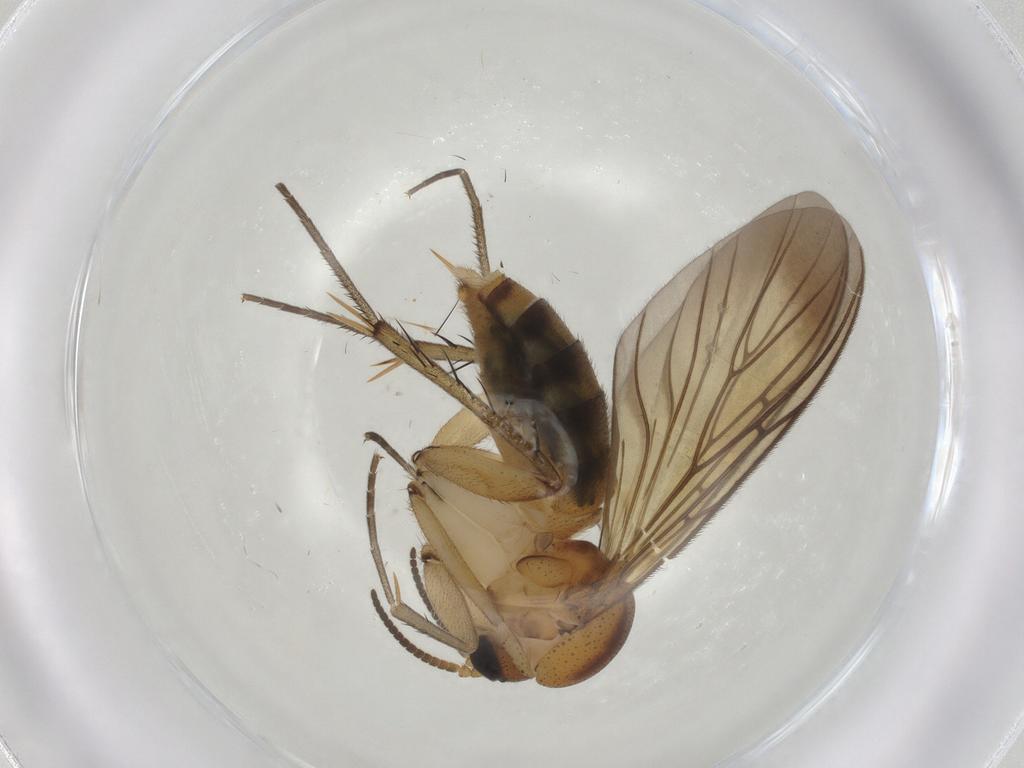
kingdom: Animalia
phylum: Arthropoda
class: Insecta
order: Diptera
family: Mycetophilidae
